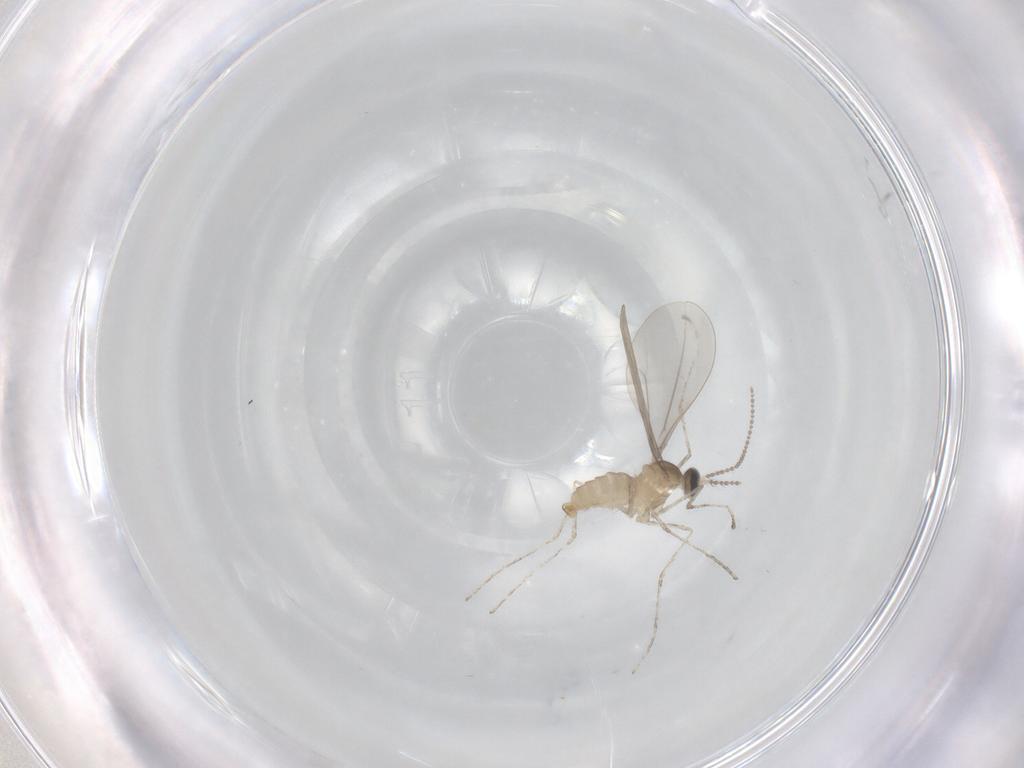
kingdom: Animalia
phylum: Arthropoda
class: Insecta
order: Diptera
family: Cecidomyiidae
